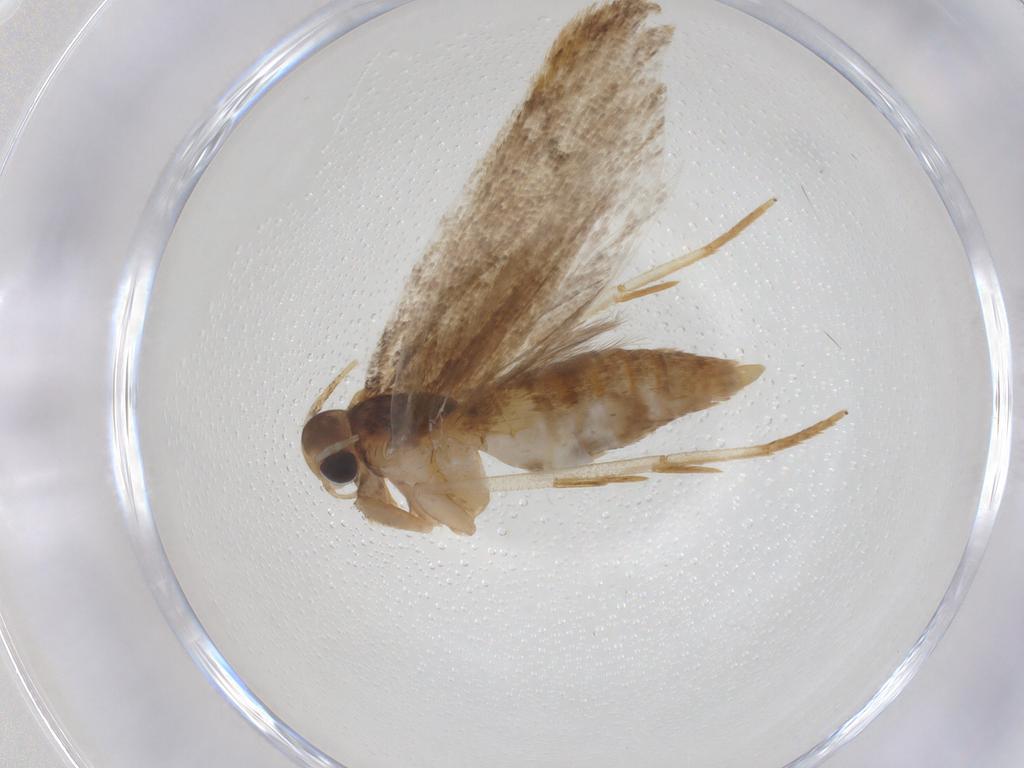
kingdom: Animalia
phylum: Arthropoda
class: Insecta
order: Lepidoptera
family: Oecophoridae
